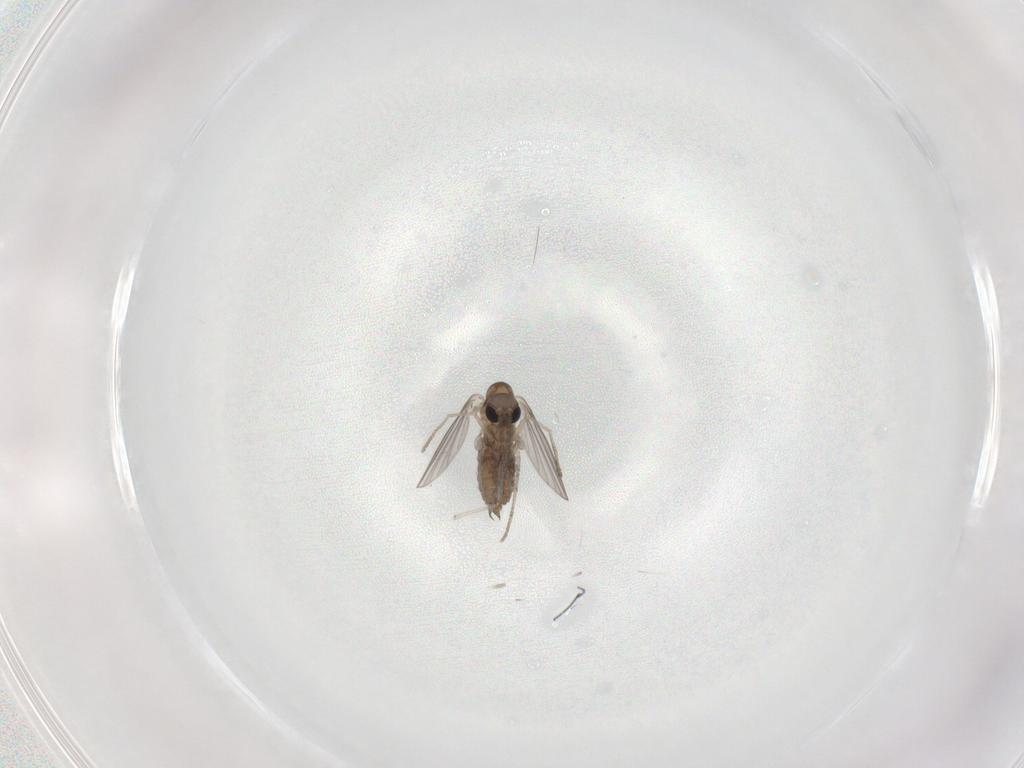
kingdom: Animalia
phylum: Arthropoda
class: Insecta
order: Diptera
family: Cecidomyiidae
